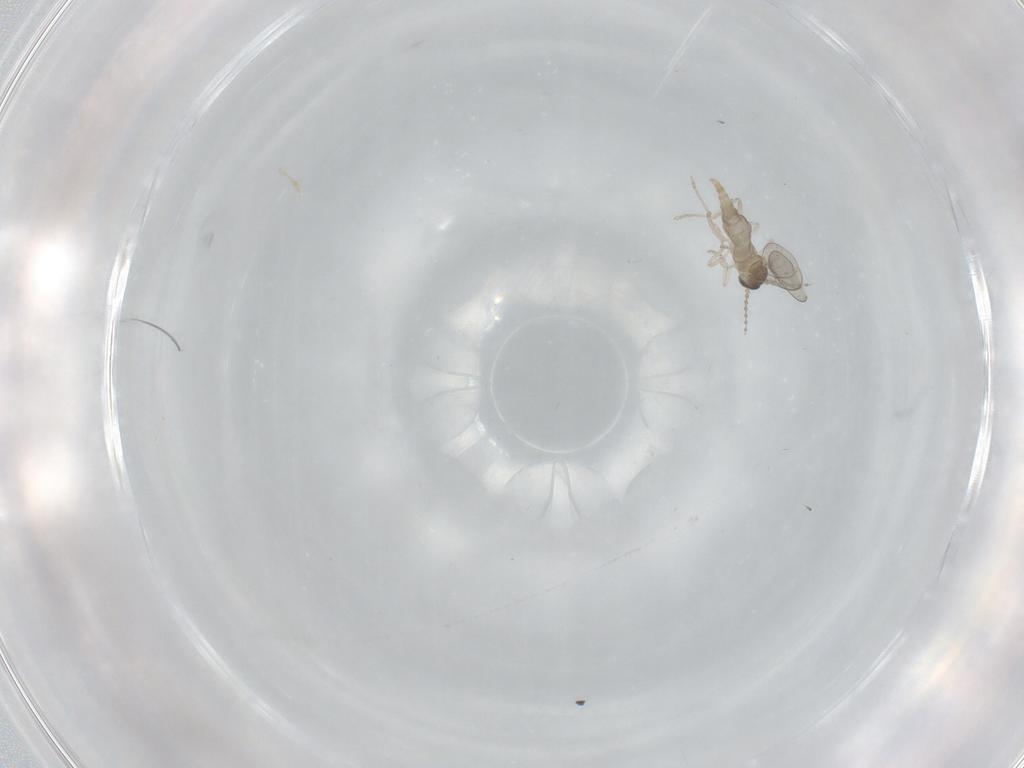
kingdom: Animalia
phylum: Arthropoda
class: Insecta
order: Diptera
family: Cecidomyiidae
